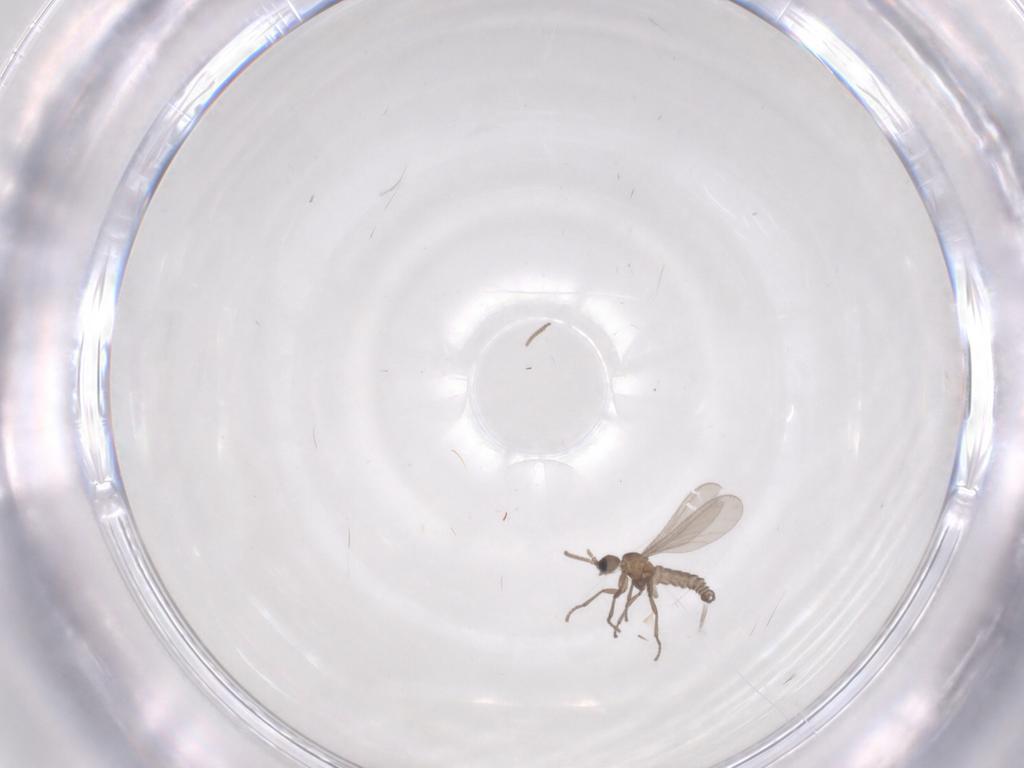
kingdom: Animalia
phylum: Arthropoda
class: Insecta
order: Diptera
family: Sciaridae
